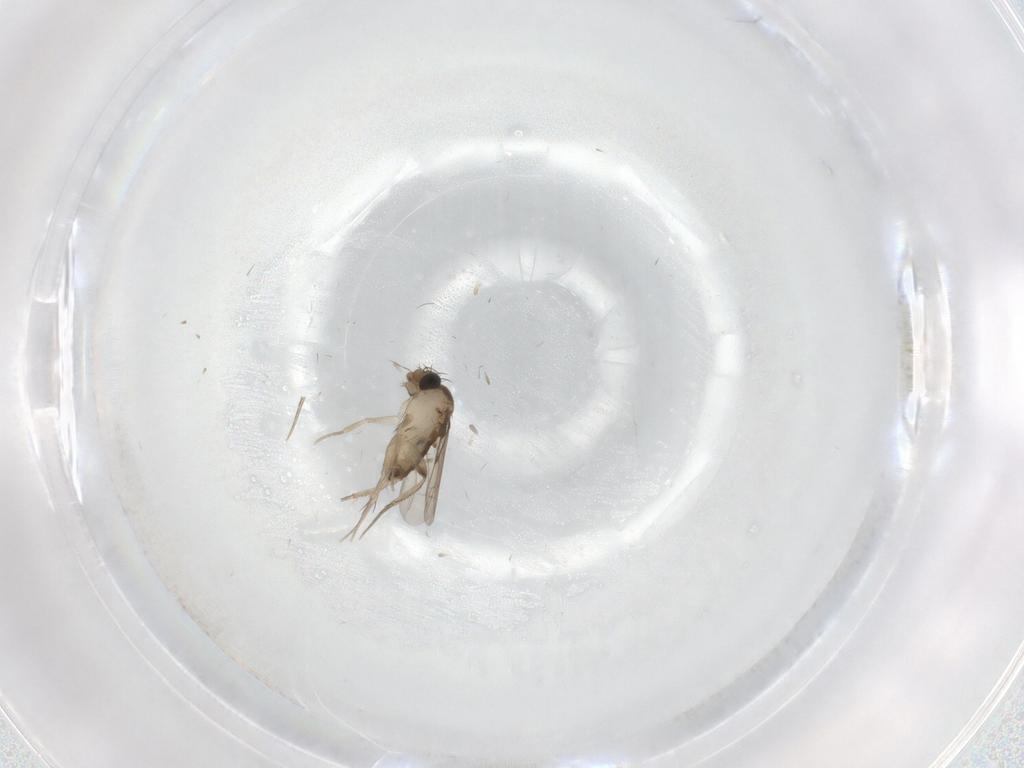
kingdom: Animalia
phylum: Arthropoda
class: Insecta
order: Diptera
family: Phoridae
